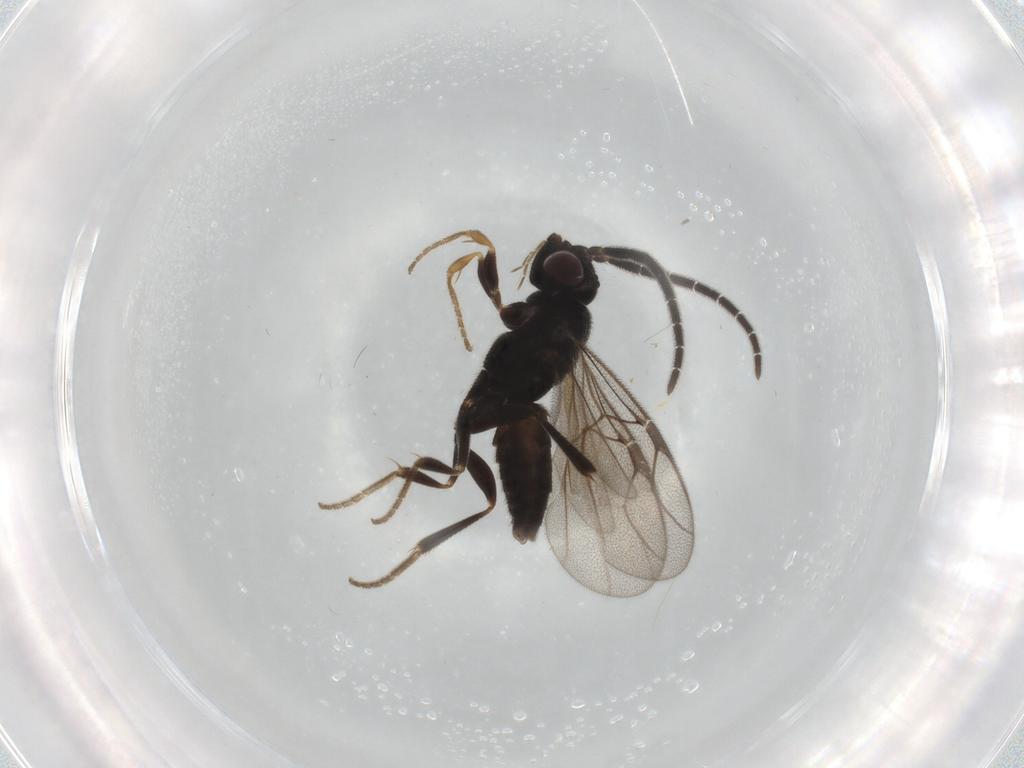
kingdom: Animalia
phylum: Arthropoda
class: Insecta
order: Hymenoptera
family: Dryinidae
